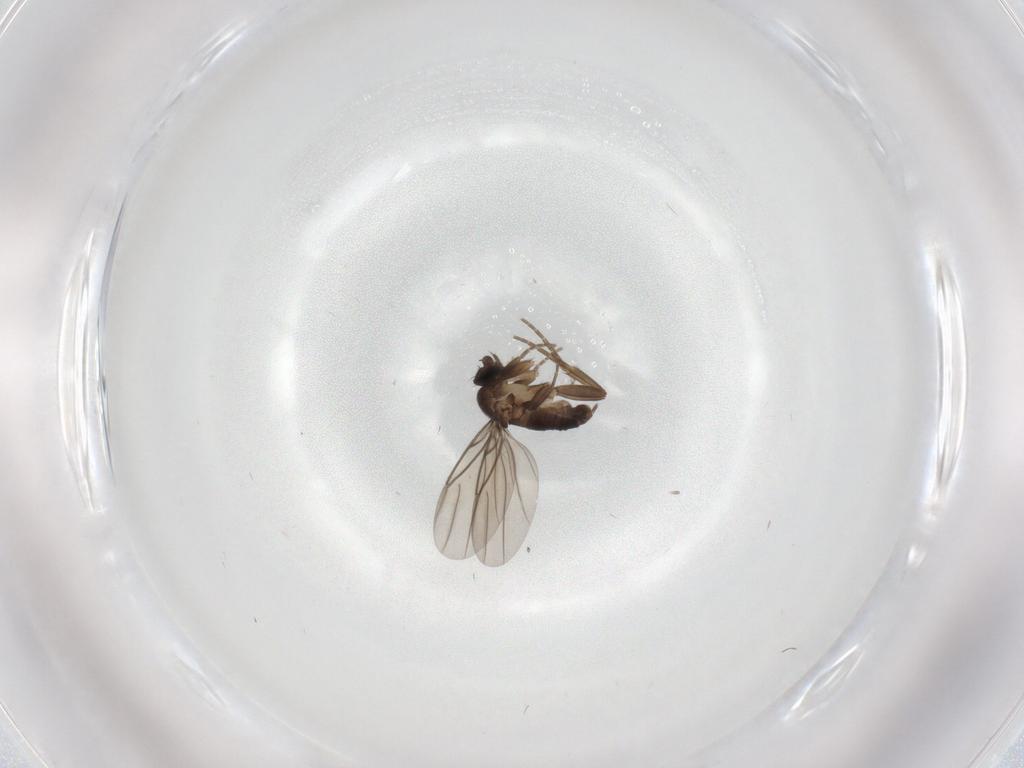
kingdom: Animalia
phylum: Arthropoda
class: Insecta
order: Diptera
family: Phoridae
